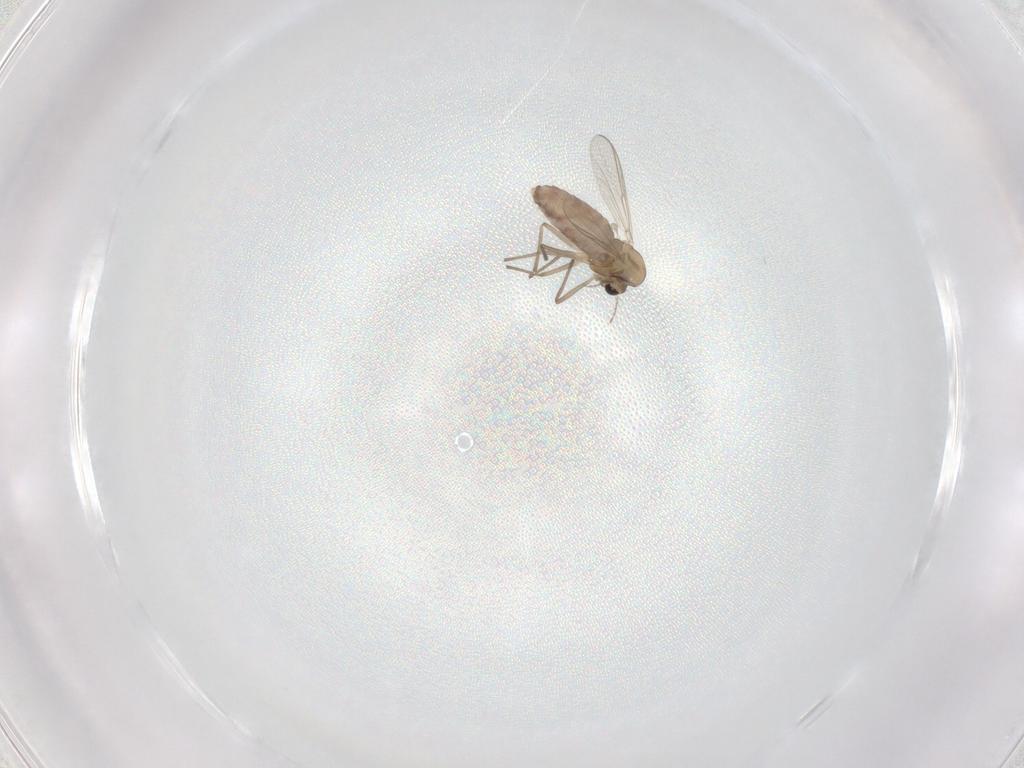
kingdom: Animalia
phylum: Arthropoda
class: Insecta
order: Diptera
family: Chironomidae
